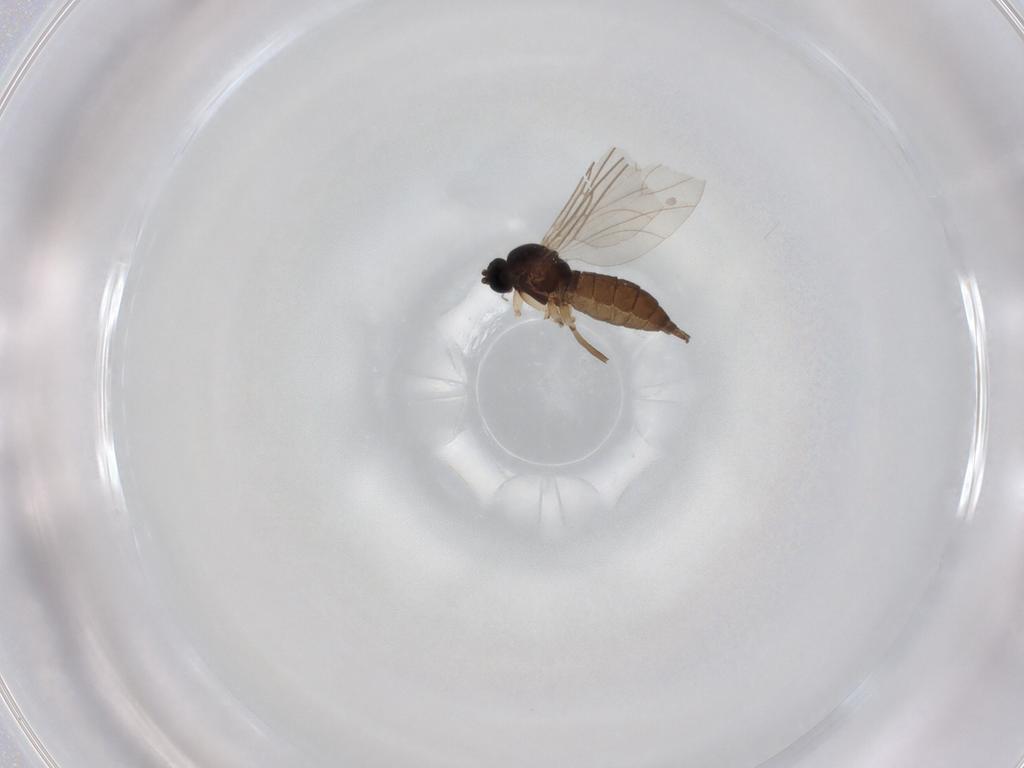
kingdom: Animalia
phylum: Arthropoda
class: Insecta
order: Diptera
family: Sciaridae
